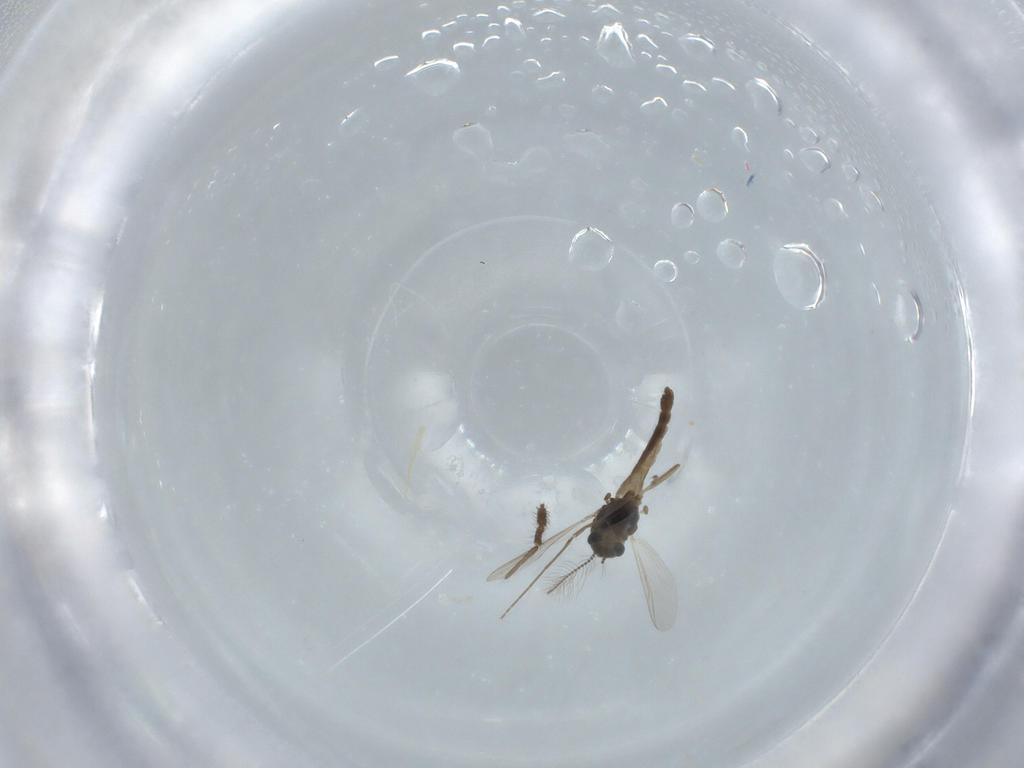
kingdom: Animalia
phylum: Arthropoda
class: Insecta
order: Diptera
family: Chironomidae
